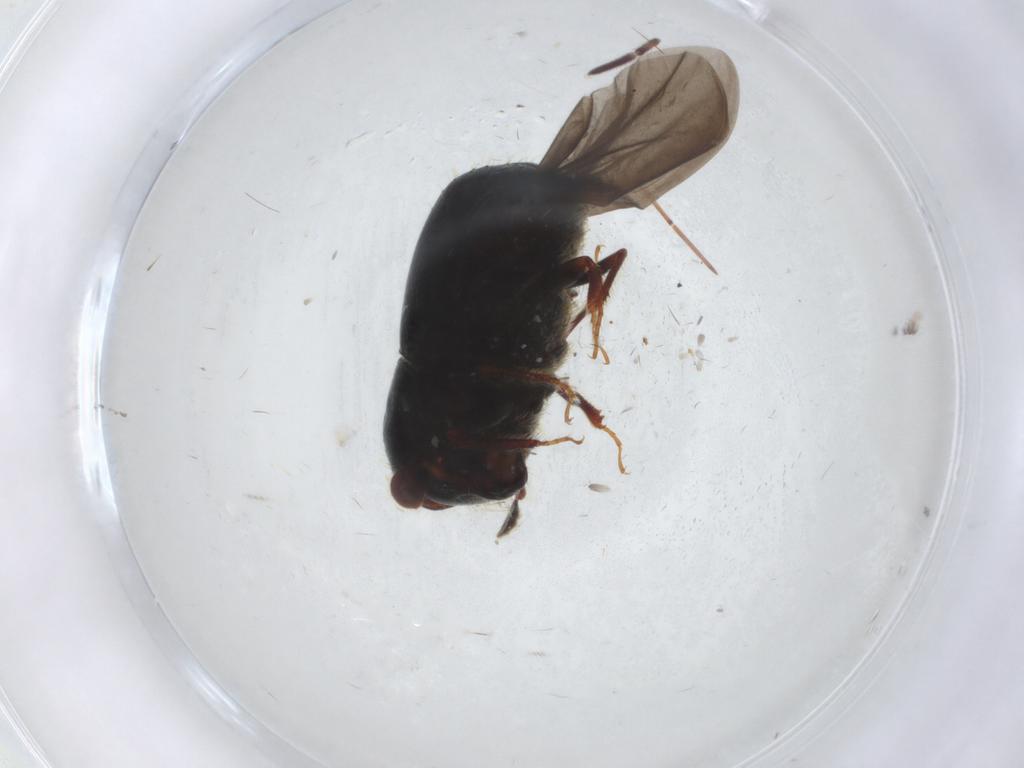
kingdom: Animalia
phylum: Arthropoda
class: Insecta
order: Coleoptera
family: Curculionidae
